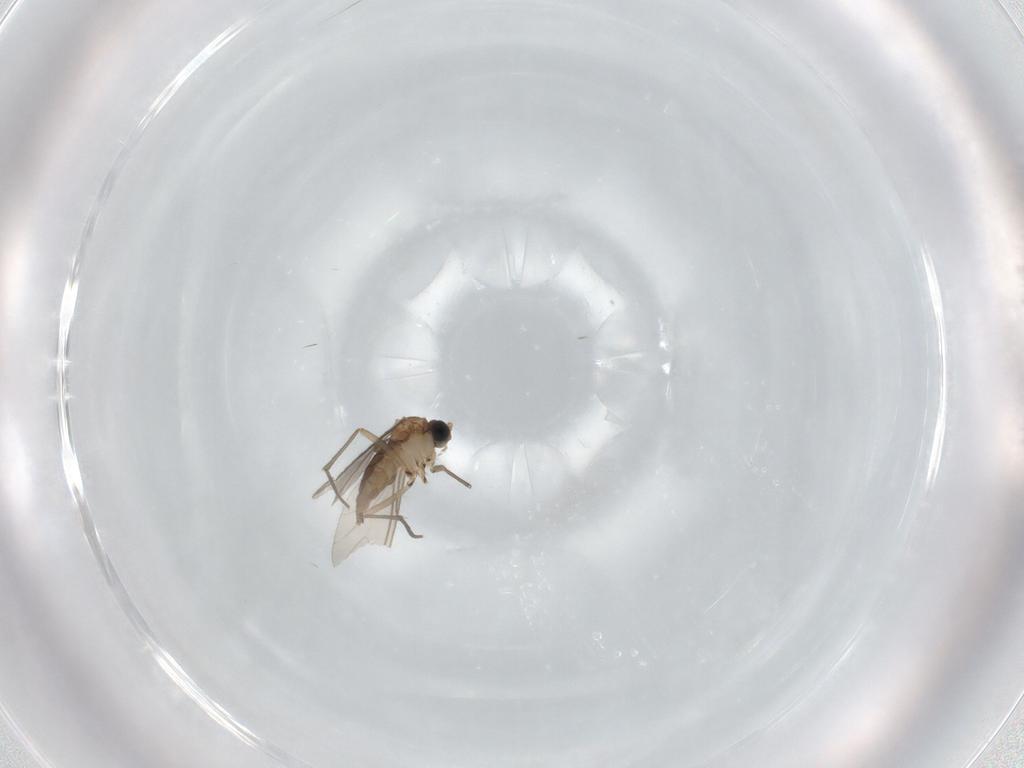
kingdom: Animalia
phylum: Arthropoda
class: Insecta
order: Diptera
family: Sciaridae
